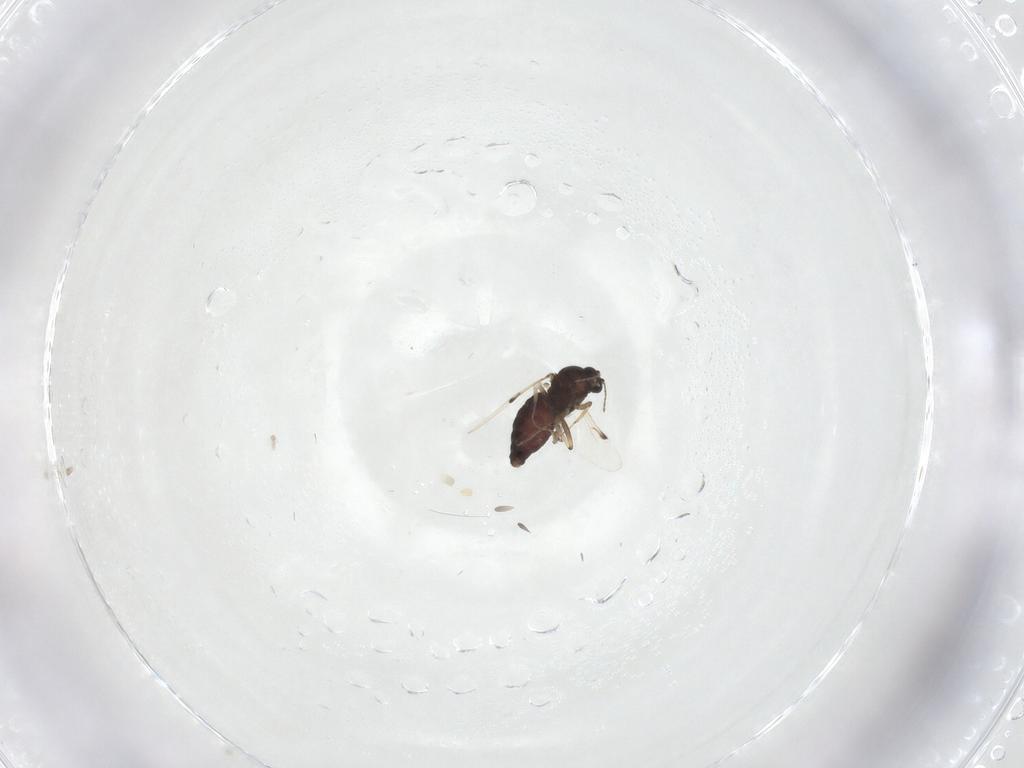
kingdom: Animalia
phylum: Arthropoda
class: Insecta
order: Diptera
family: Ceratopogonidae
